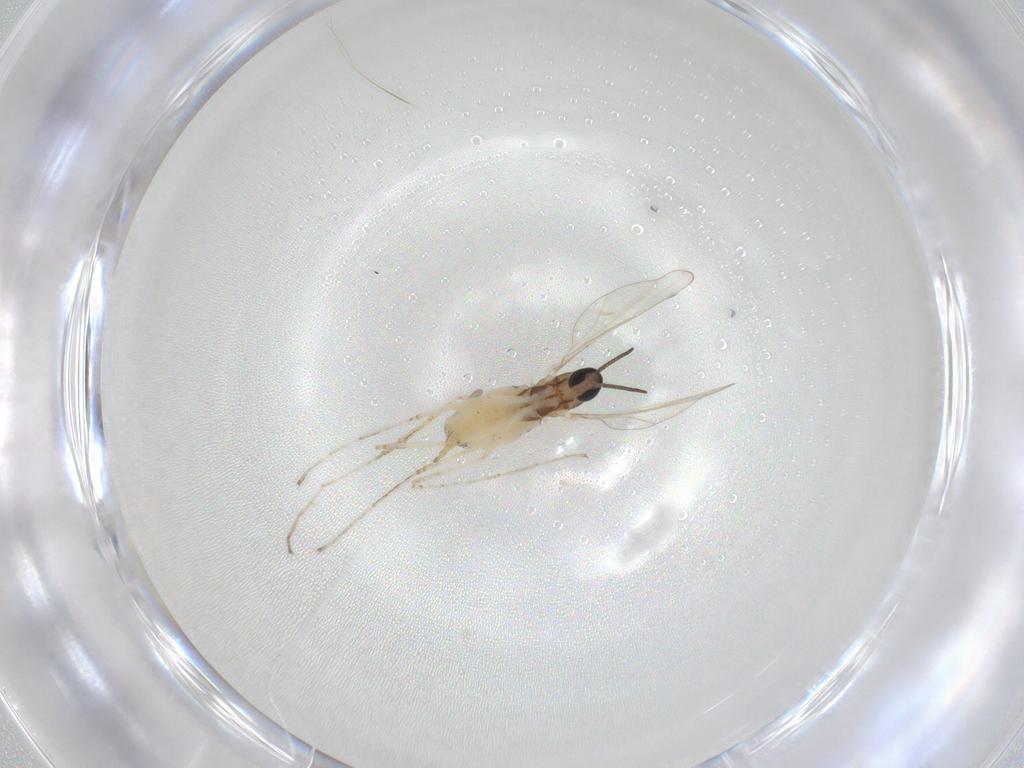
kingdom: Animalia
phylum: Arthropoda
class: Insecta
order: Diptera
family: Cecidomyiidae
